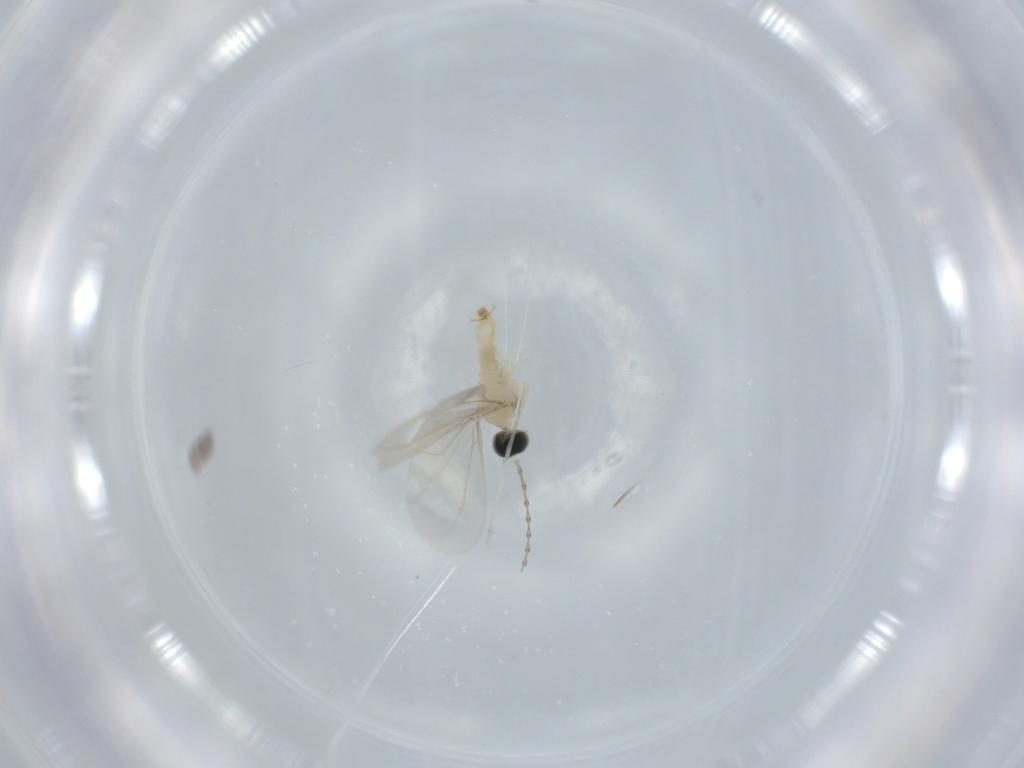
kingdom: Animalia
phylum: Arthropoda
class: Insecta
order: Diptera
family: Cecidomyiidae
